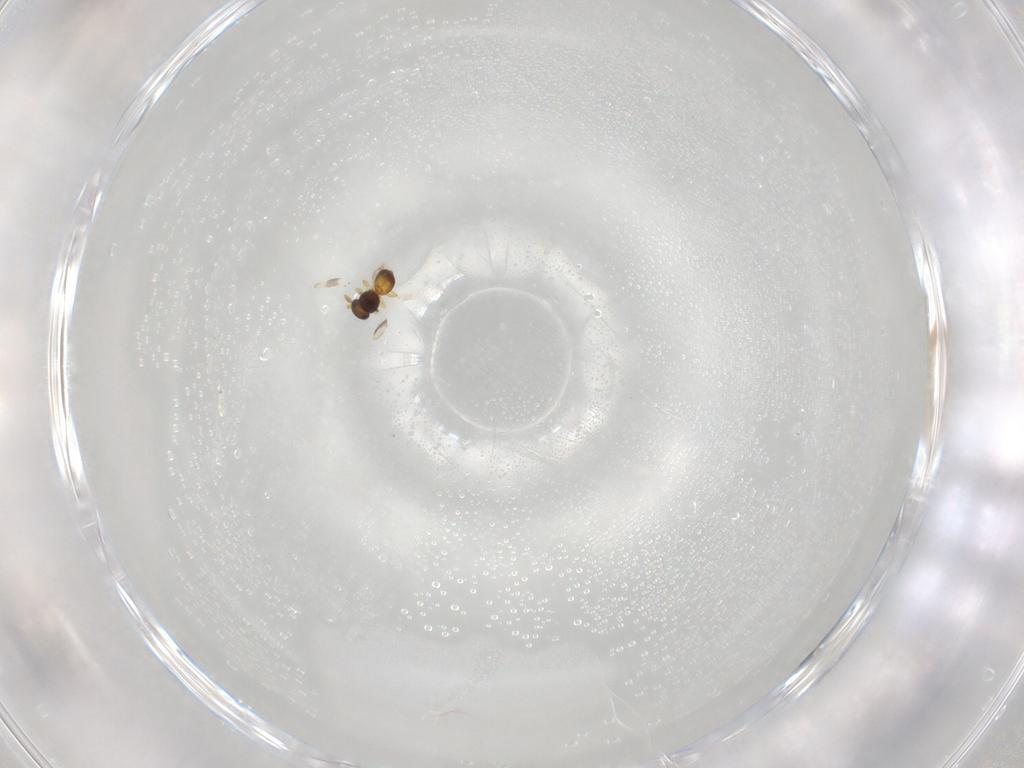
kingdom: Animalia
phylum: Arthropoda
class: Insecta
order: Hymenoptera
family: Platygastridae
